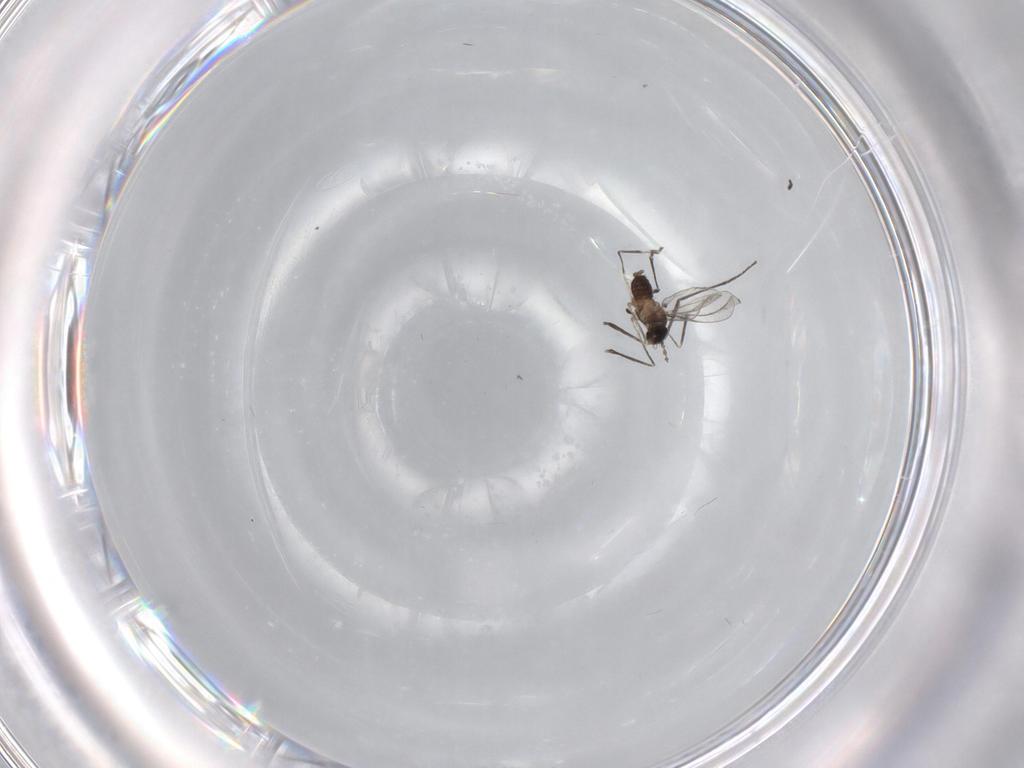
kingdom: Animalia
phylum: Arthropoda
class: Insecta
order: Diptera
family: Cecidomyiidae
